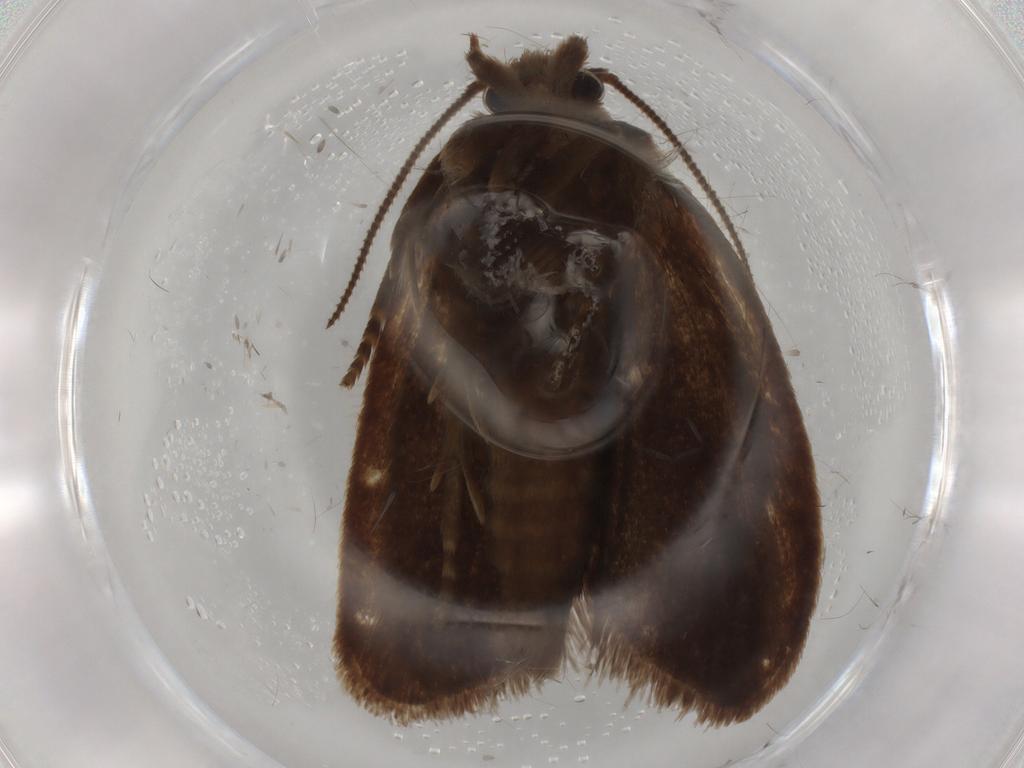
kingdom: Animalia
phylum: Arthropoda
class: Insecta
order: Lepidoptera
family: Tineidae
